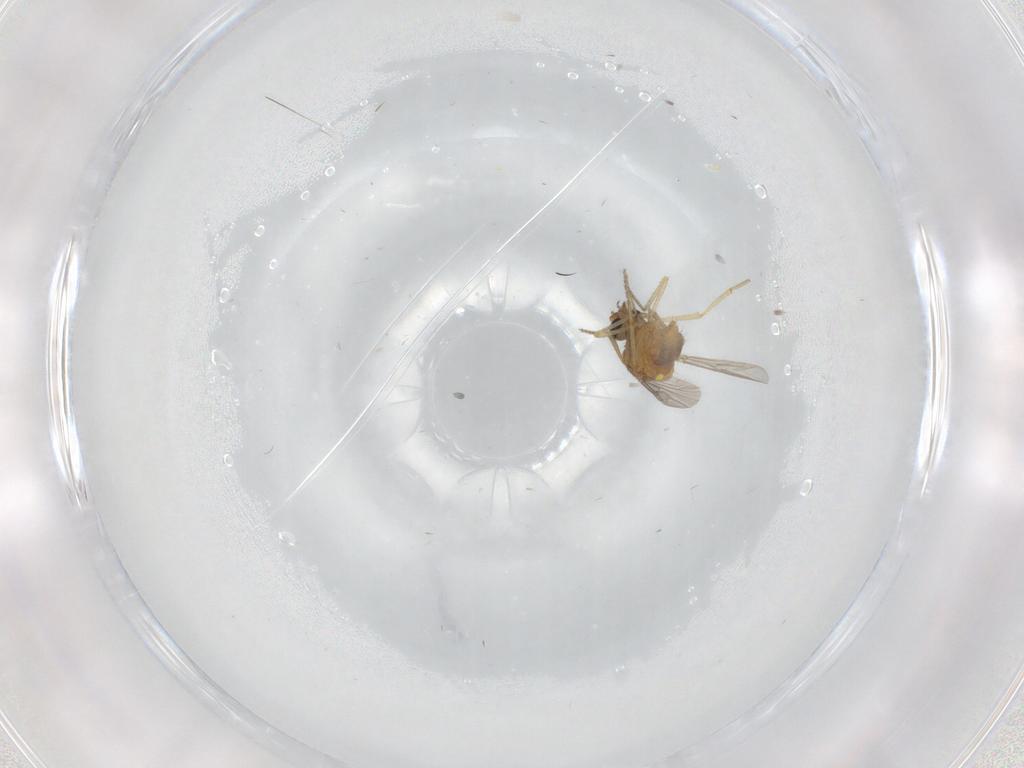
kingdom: Animalia
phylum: Arthropoda
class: Insecta
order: Diptera
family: Ceratopogonidae
